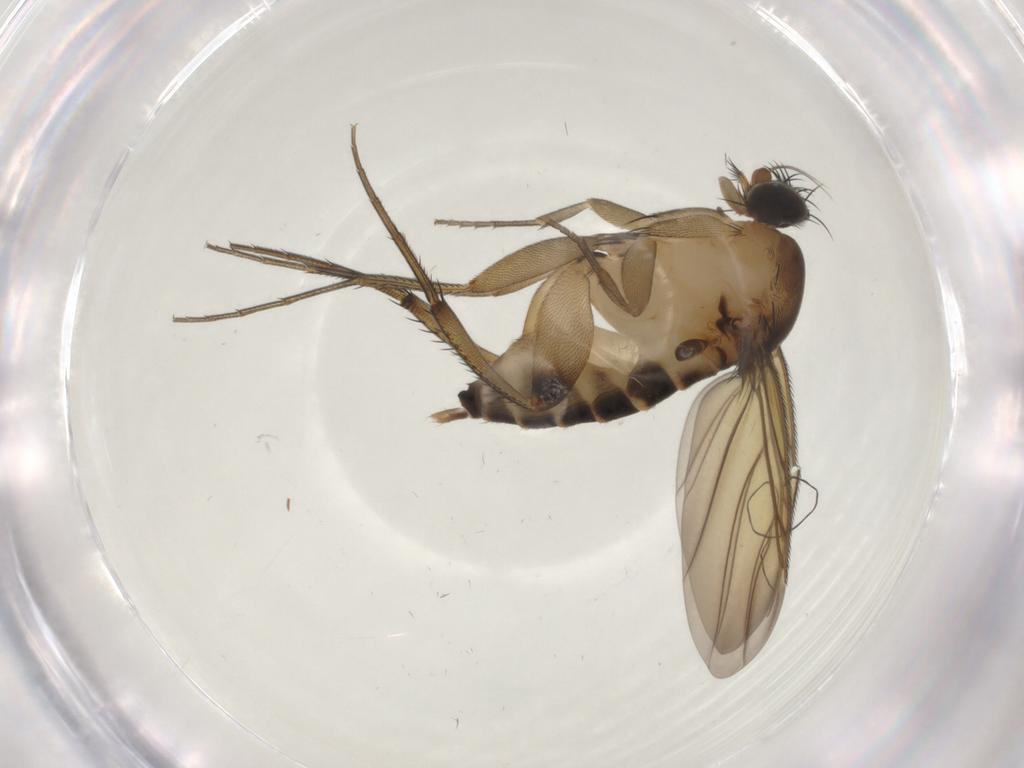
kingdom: Animalia
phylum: Arthropoda
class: Insecta
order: Diptera
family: Phoridae
